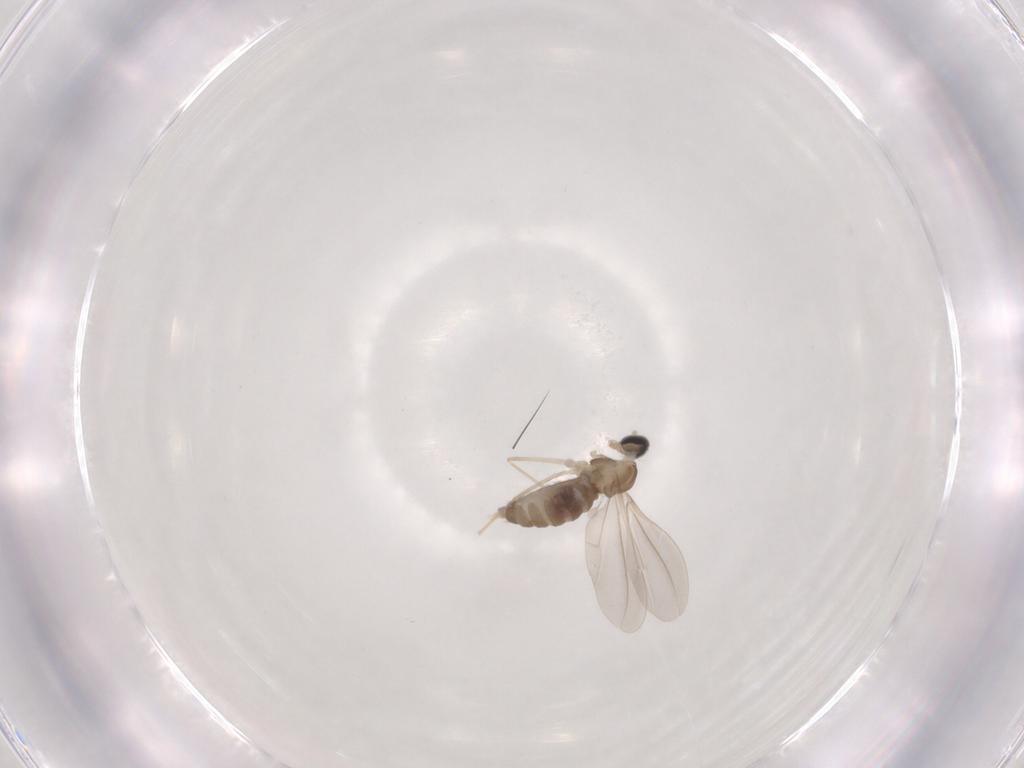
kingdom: Animalia
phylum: Arthropoda
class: Insecta
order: Diptera
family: Cecidomyiidae
